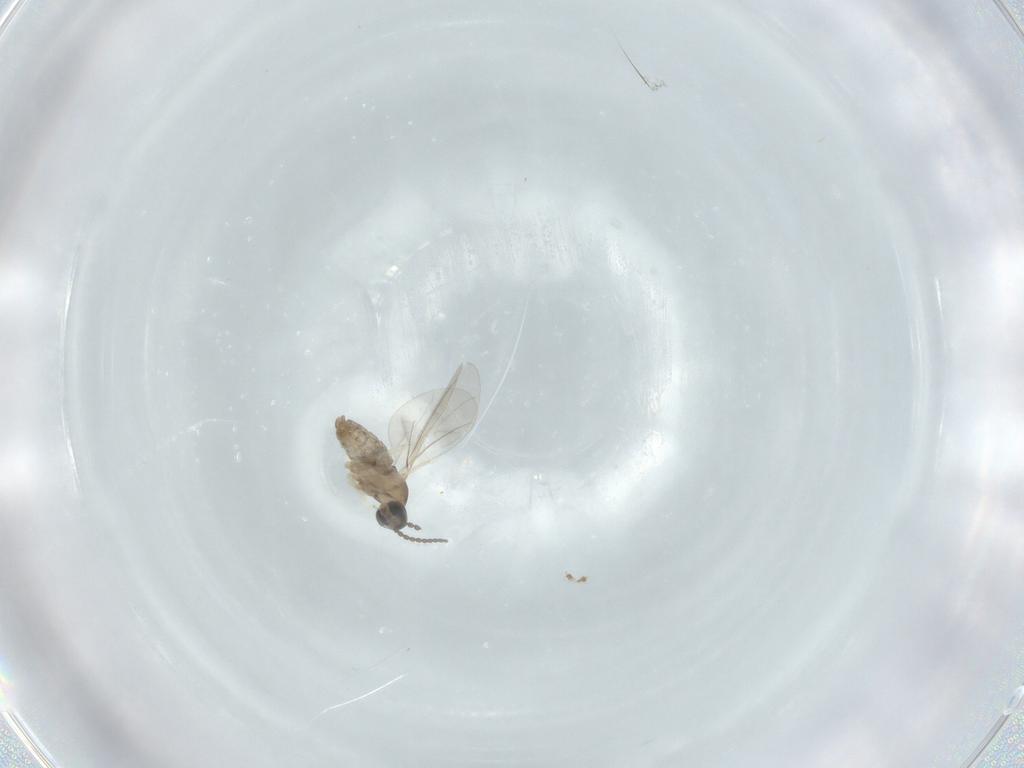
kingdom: Animalia
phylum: Arthropoda
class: Insecta
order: Diptera
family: Cecidomyiidae
